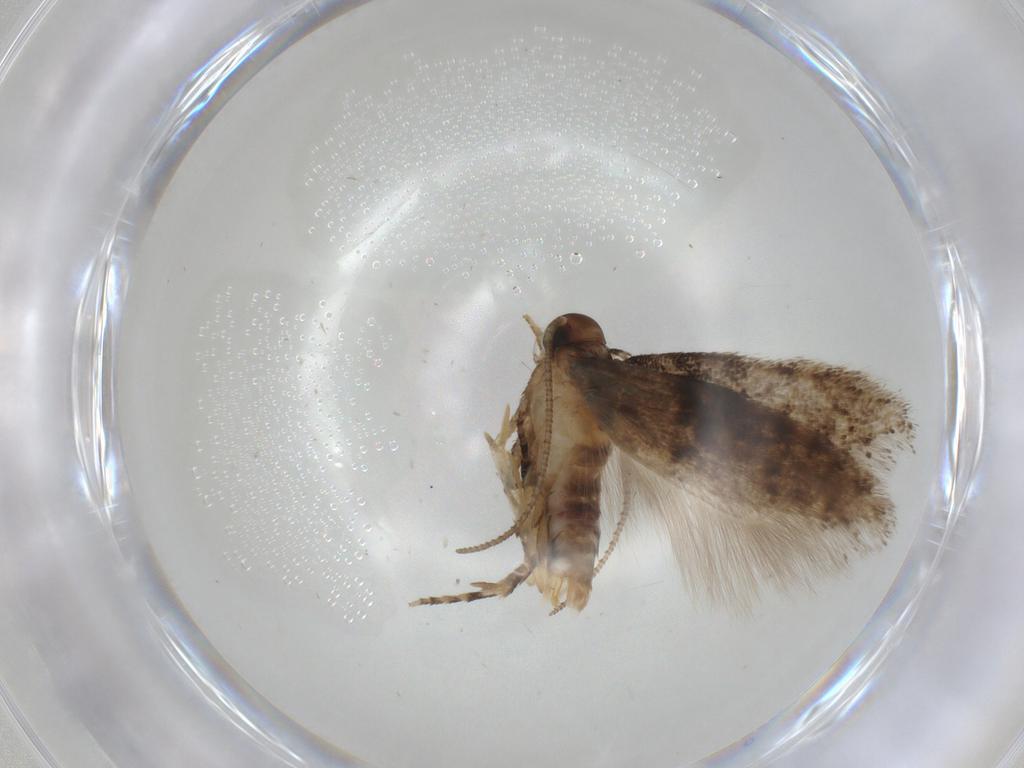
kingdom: Animalia
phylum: Arthropoda
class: Insecta
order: Lepidoptera
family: Gelechiidae
